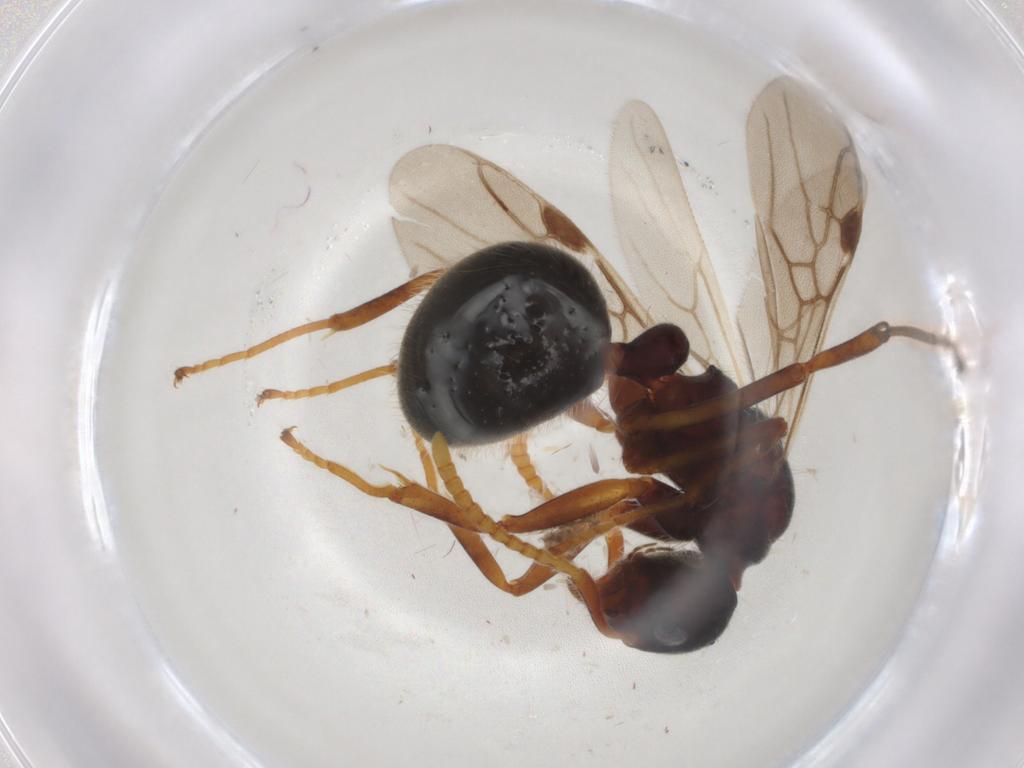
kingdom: Animalia
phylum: Arthropoda
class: Insecta
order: Hymenoptera
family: Formicidae
